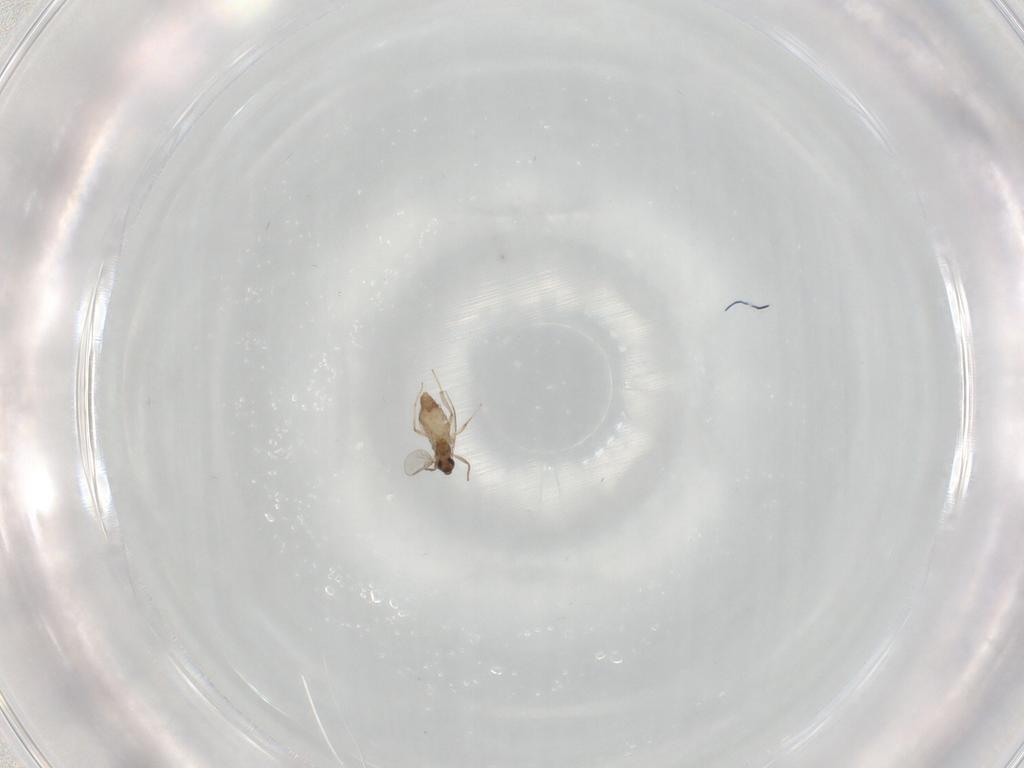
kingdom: Animalia
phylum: Arthropoda
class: Insecta
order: Diptera
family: Chironomidae
